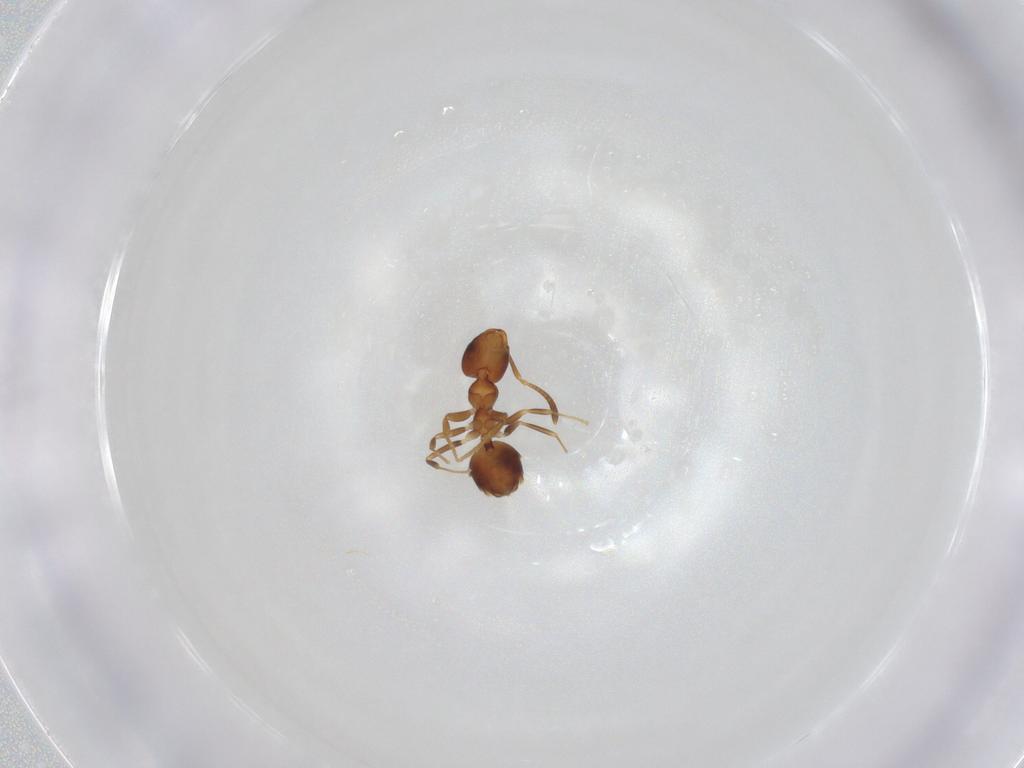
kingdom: Animalia
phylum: Arthropoda
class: Insecta
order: Hymenoptera
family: Formicidae
